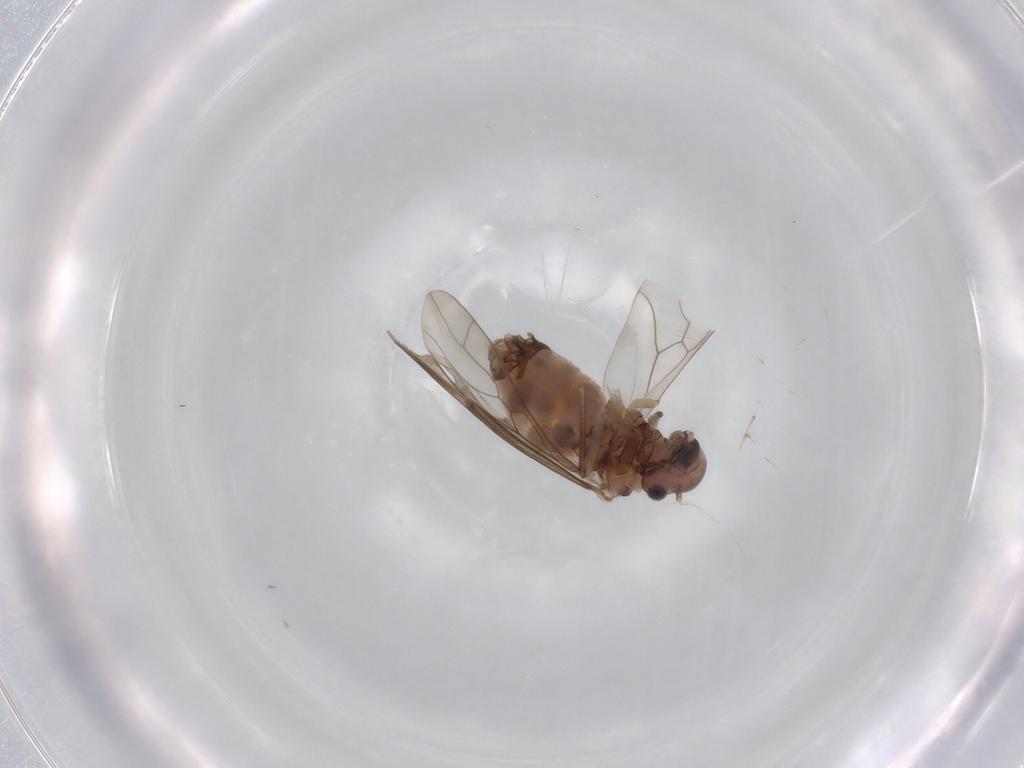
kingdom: Animalia
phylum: Arthropoda
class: Insecta
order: Psocodea
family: Peripsocidae
